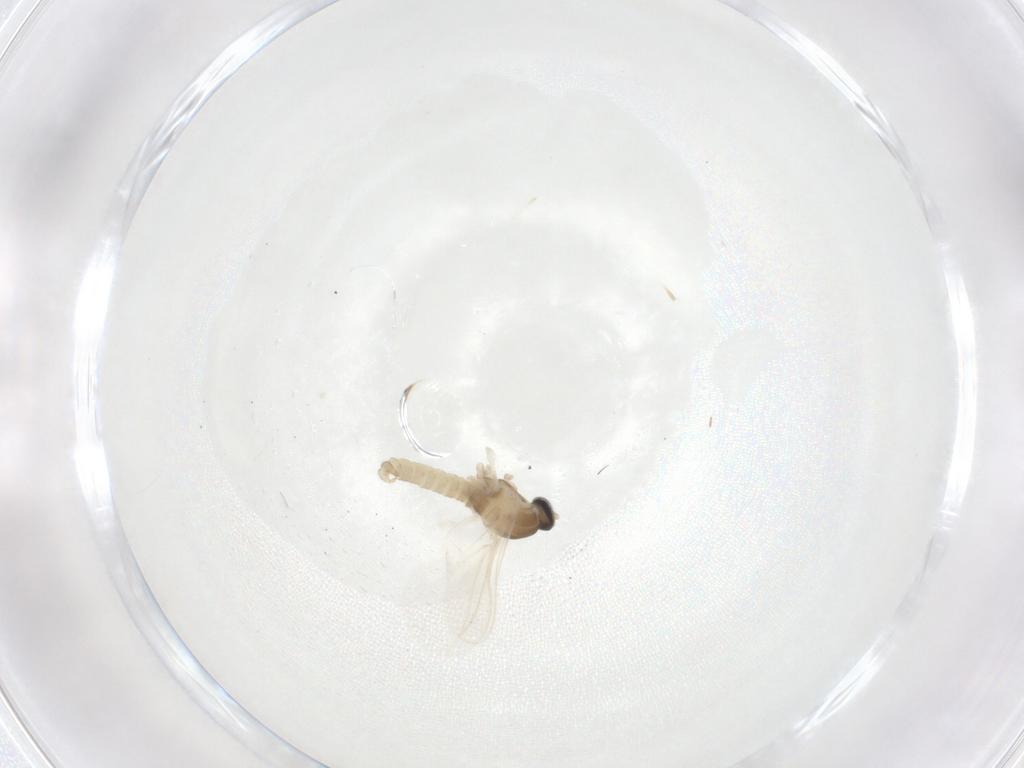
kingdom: Animalia
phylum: Arthropoda
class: Insecta
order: Diptera
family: Cecidomyiidae
